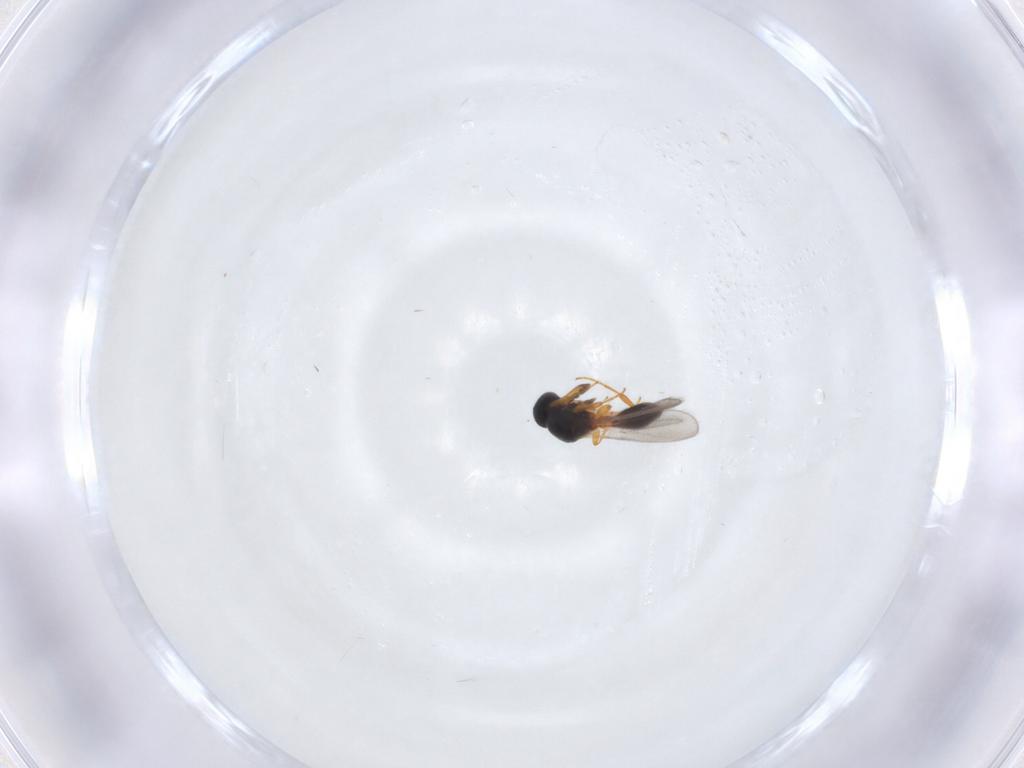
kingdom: Animalia
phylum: Arthropoda
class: Insecta
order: Hymenoptera
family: Platygastridae
